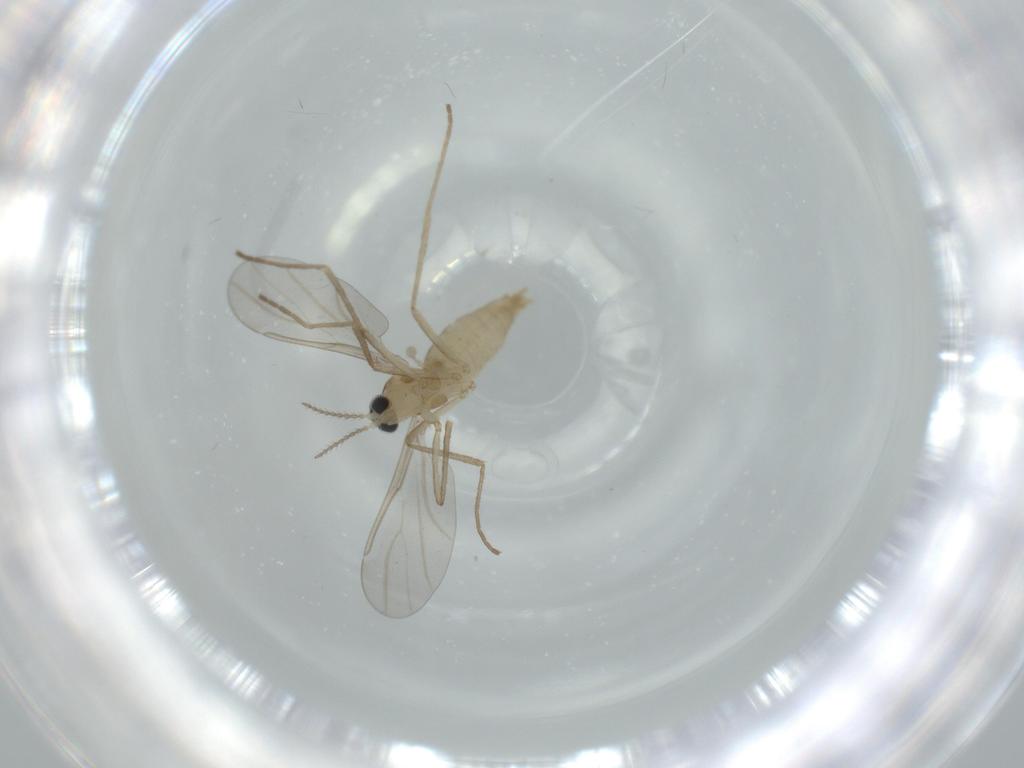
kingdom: Animalia
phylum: Arthropoda
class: Insecta
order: Diptera
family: Cecidomyiidae
